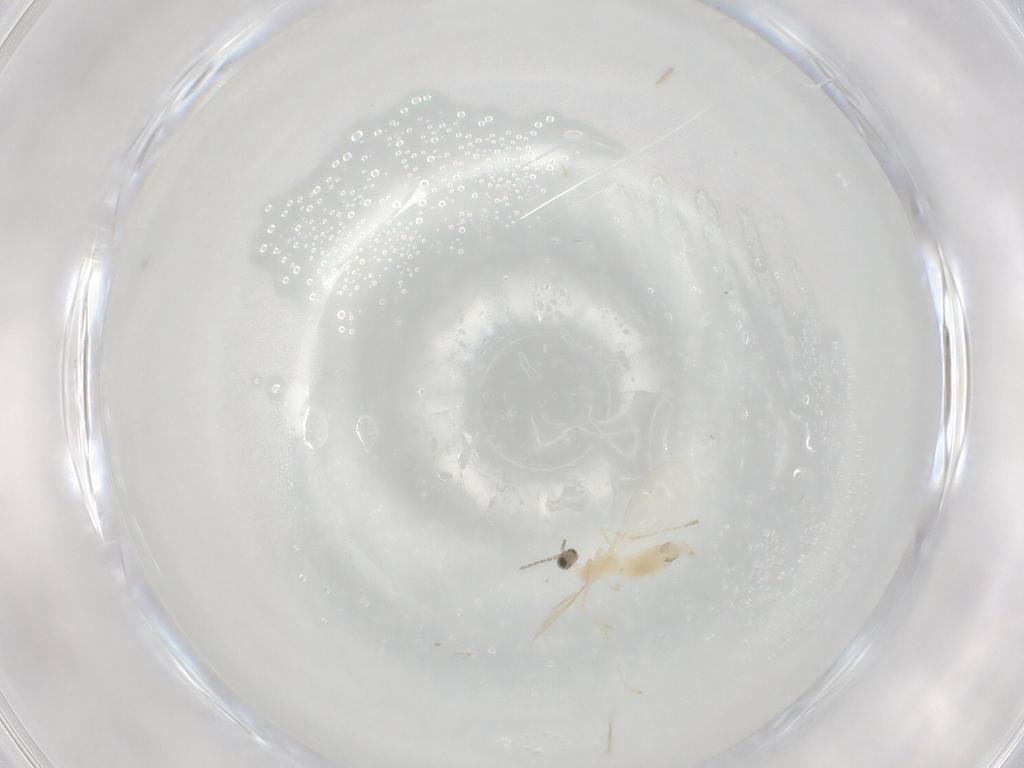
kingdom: Animalia
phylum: Arthropoda
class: Insecta
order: Diptera
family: Cecidomyiidae
